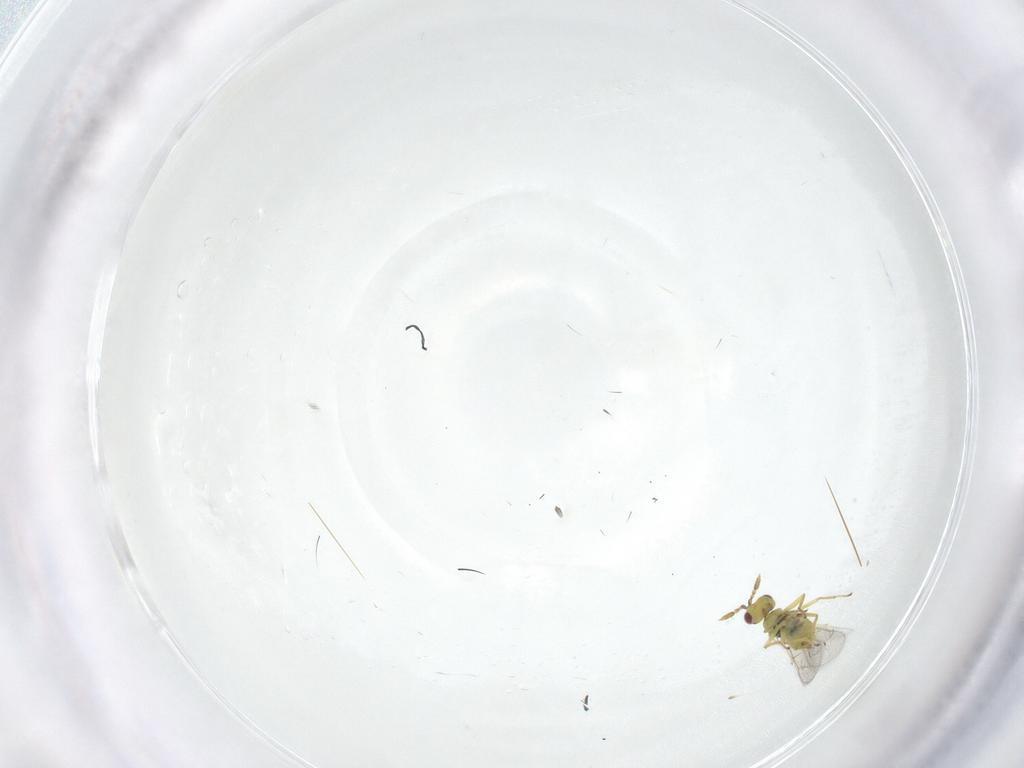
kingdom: Animalia
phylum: Arthropoda
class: Insecta
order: Hymenoptera
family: Eulophidae
